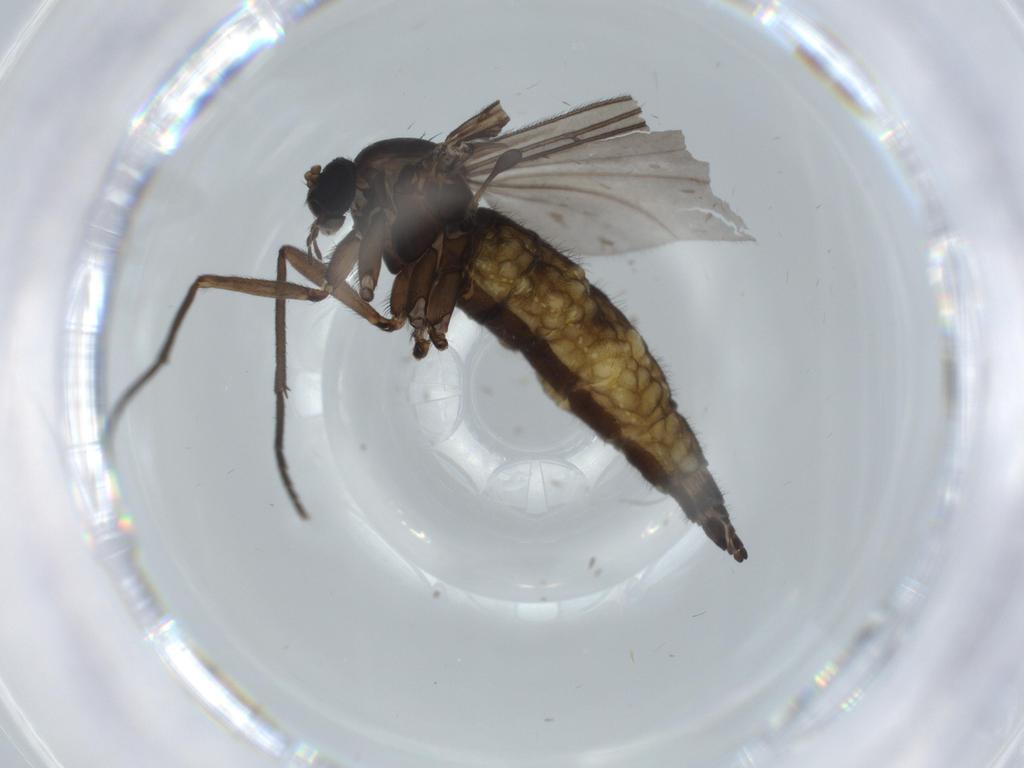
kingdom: Animalia
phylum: Arthropoda
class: Insecta
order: Diptera
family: Sciaridae
